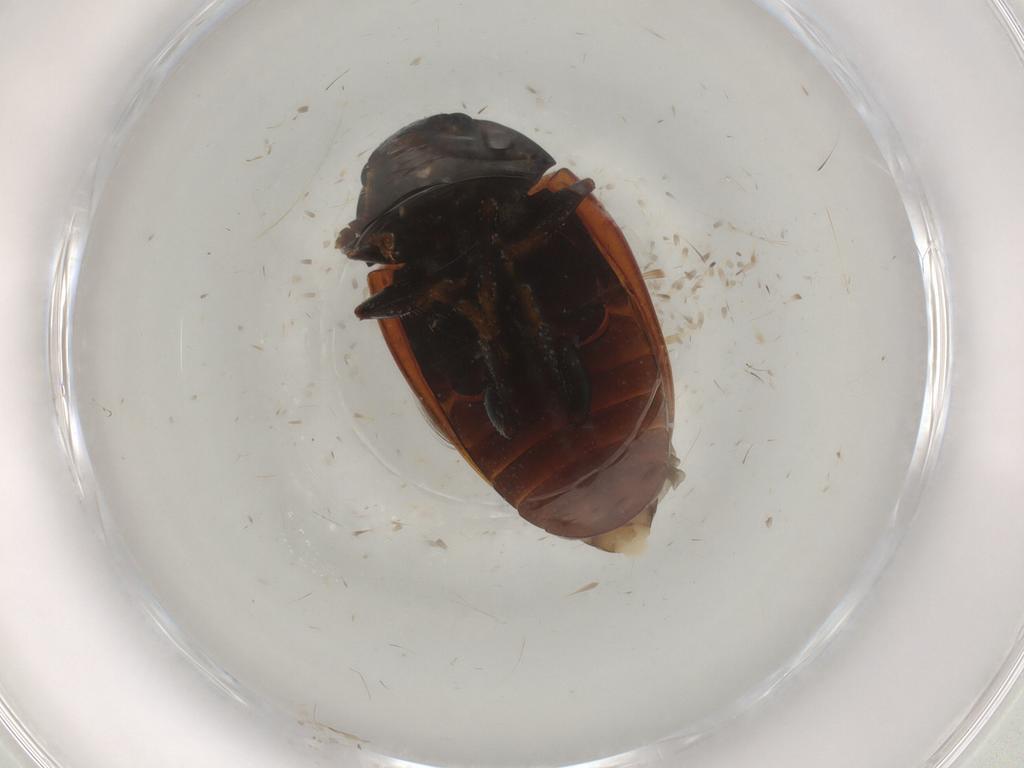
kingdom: Animalia
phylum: Arthropoda
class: Insecta
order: Coleoptera
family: Erotylidae
